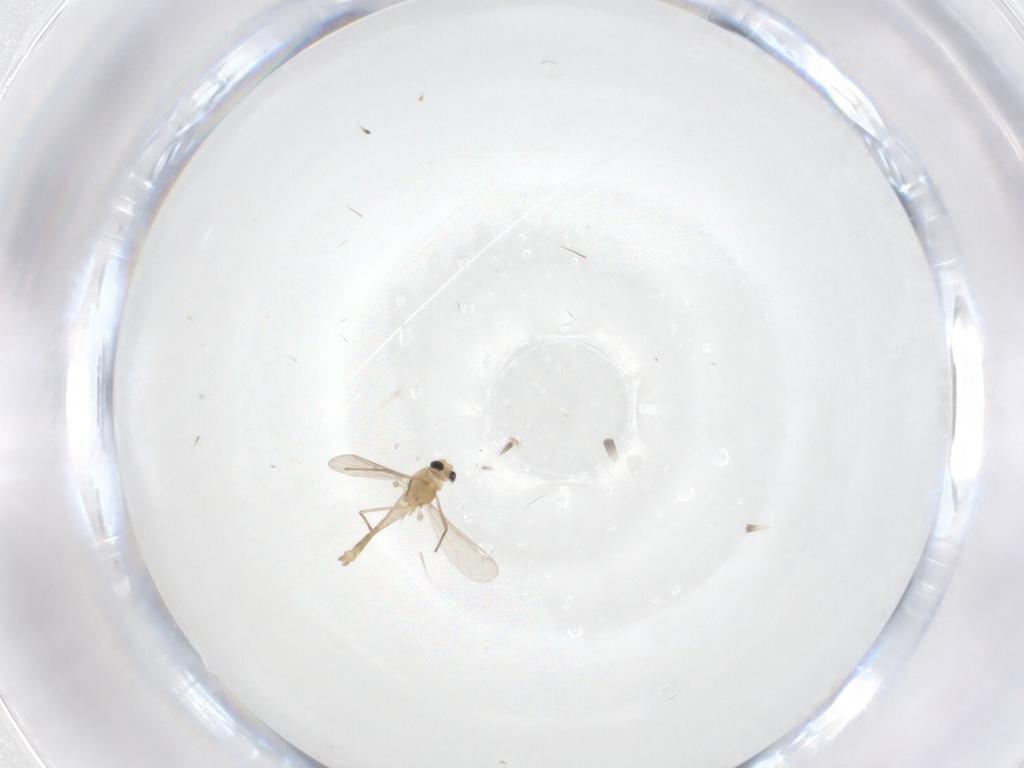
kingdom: Animalia
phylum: Arthropoda
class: Insecta
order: Diptera
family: Chironomidae
